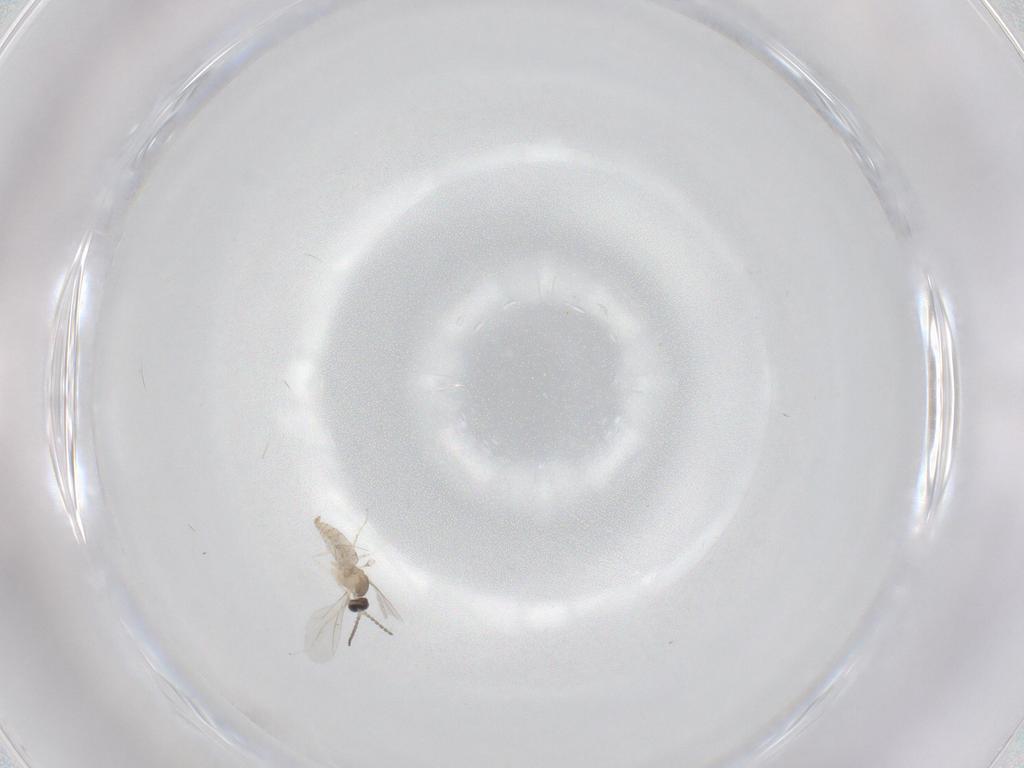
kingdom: Animalia
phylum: Arthropoda
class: Insecta
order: Diptera
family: Cecidomyiidae
